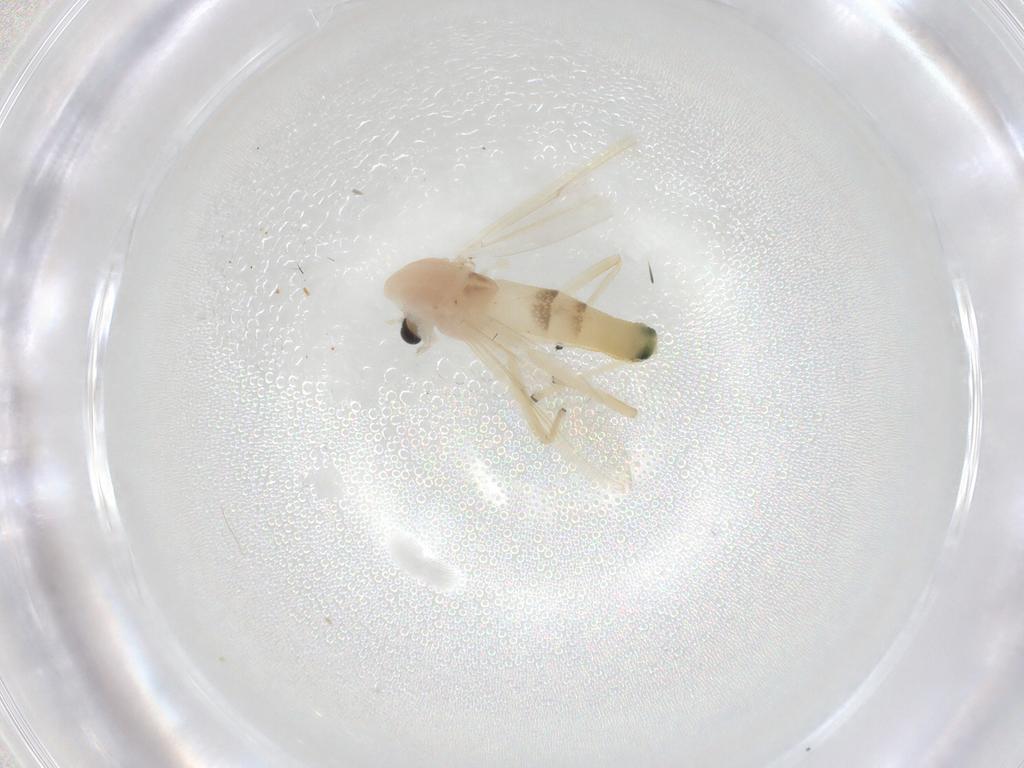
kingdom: Animalia
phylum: Arthropoda
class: Insecta
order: Diptera
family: Chironomidae
